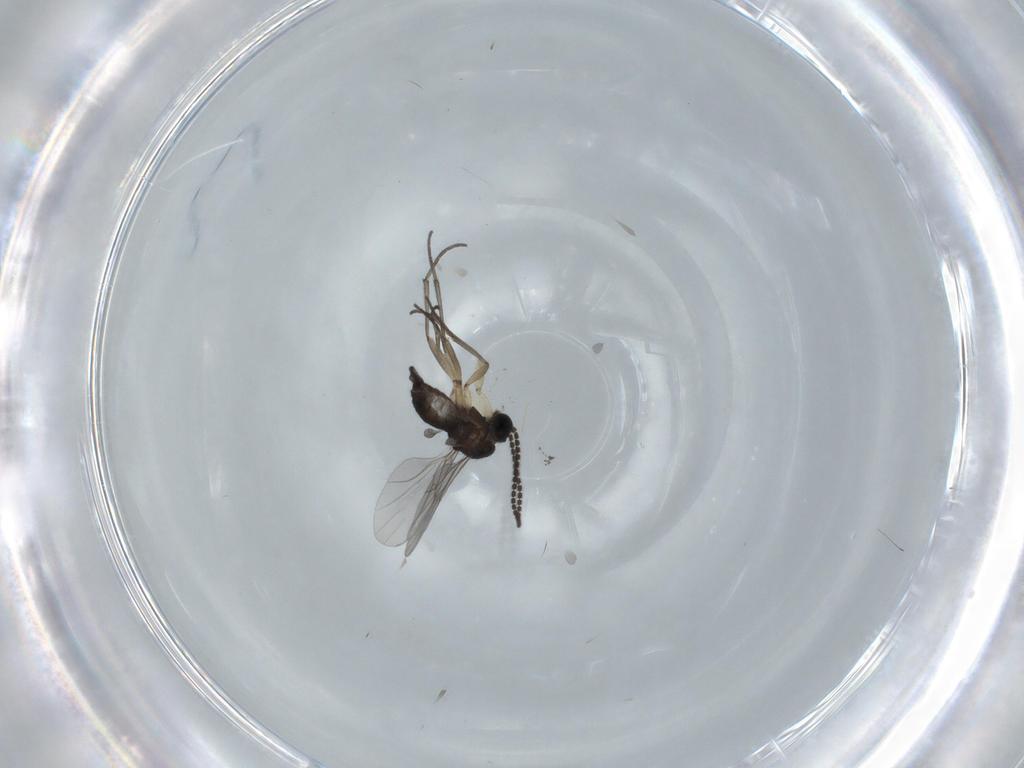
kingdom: Animalia
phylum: Arthropoda
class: Insecta
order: Diptera
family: Sciaridae
